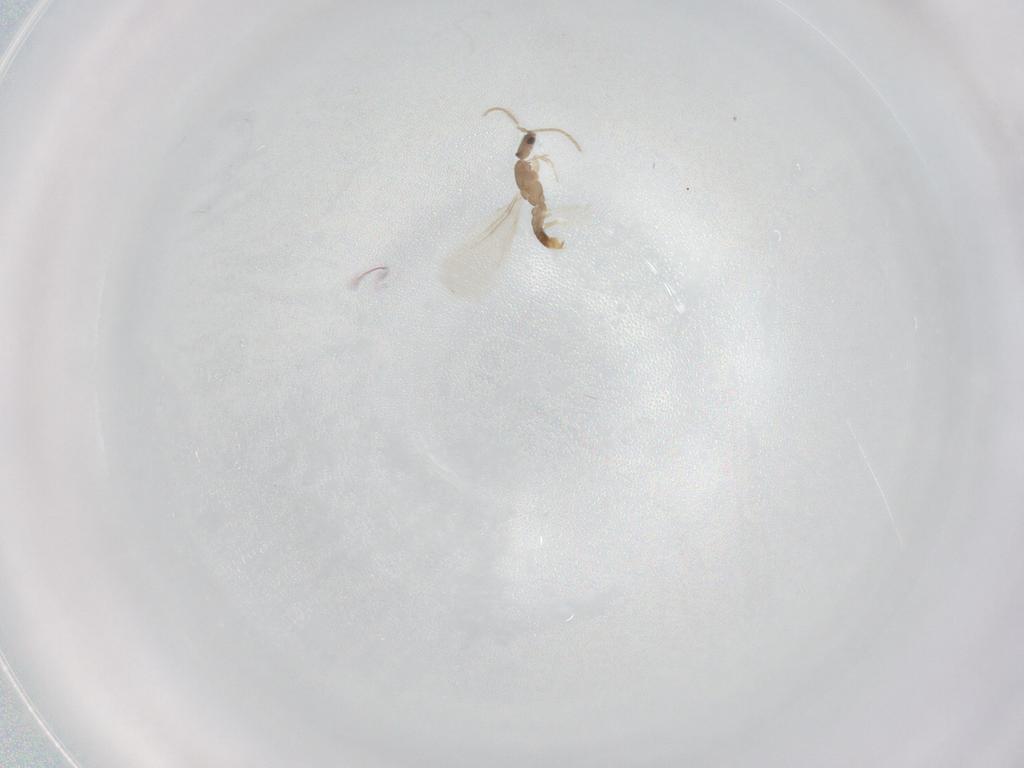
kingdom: Animalia
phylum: Arthropoda
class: Insecta
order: Hymenoptera
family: Formicidae
